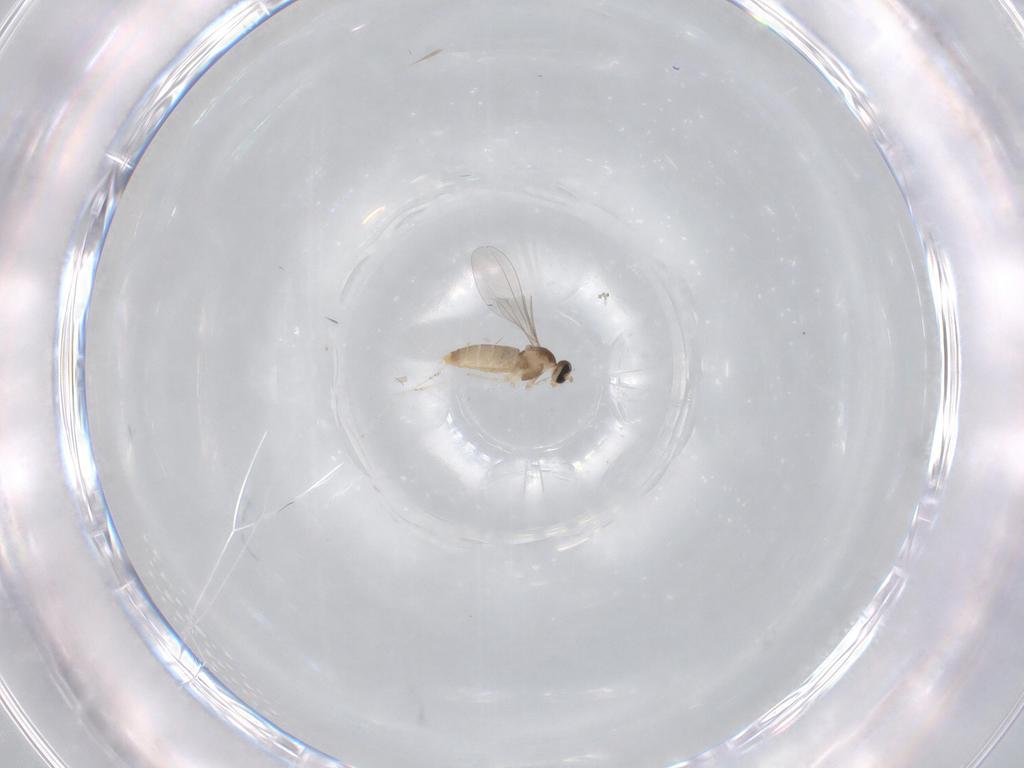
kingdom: Animalia
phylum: Arthropoda
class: Insecta
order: Diptera
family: Cecidomyiidae
